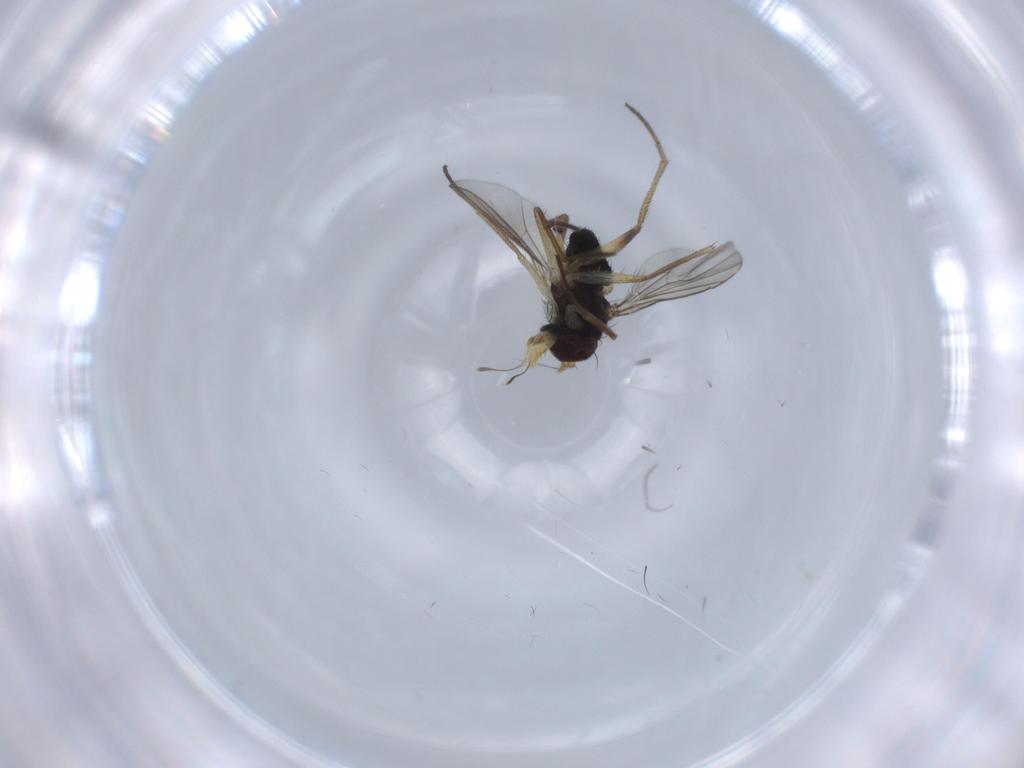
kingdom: Animalia
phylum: Arthropoda
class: Insecta
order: Diptera
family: Dolichopodidae
